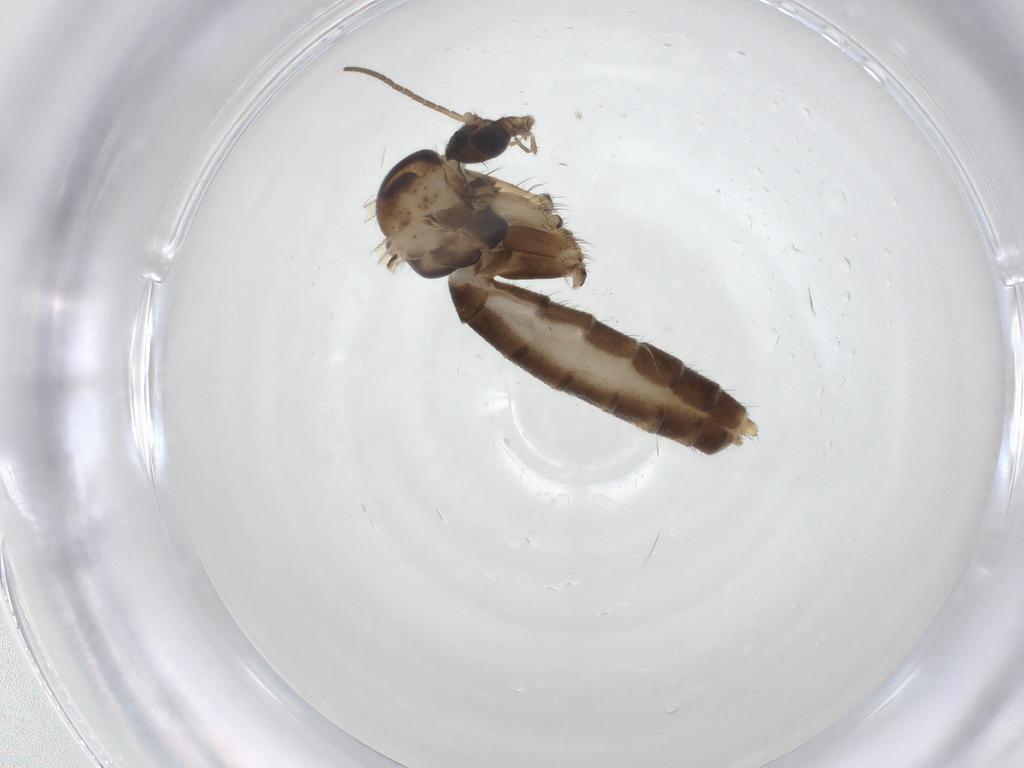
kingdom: Animalia
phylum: Arthropoda
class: Insecta
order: Diptera
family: Mycetophilidae
